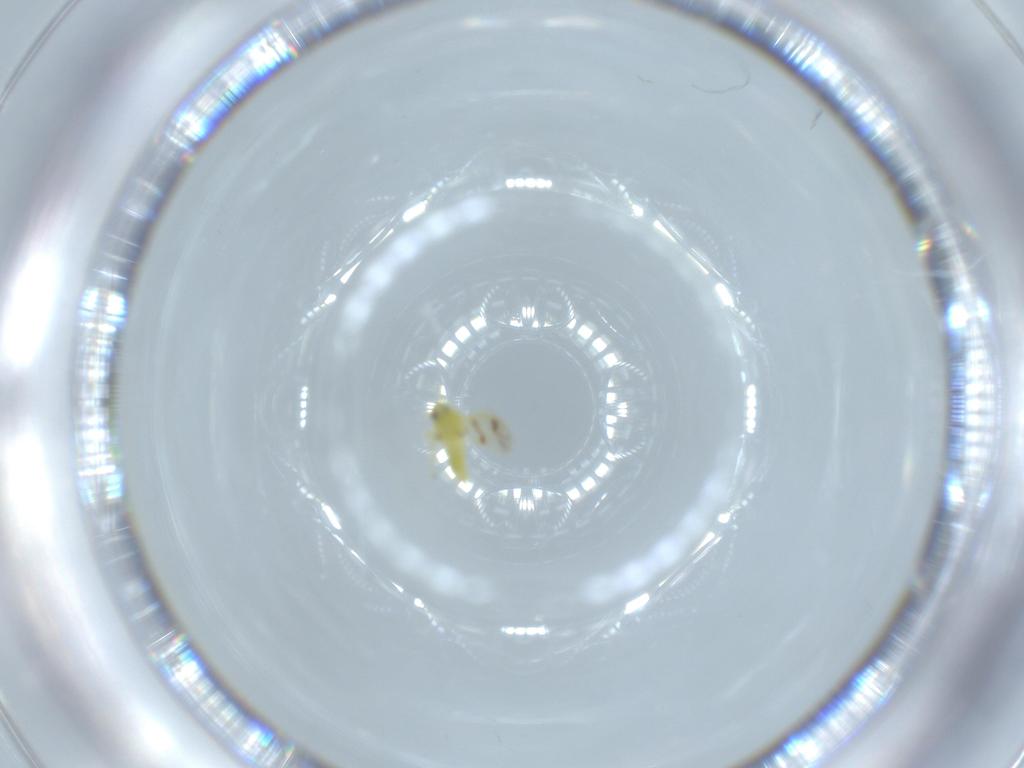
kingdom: Animalia
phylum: Arthropoda
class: Insecta
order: Hemiptera
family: Aleyrodidae
